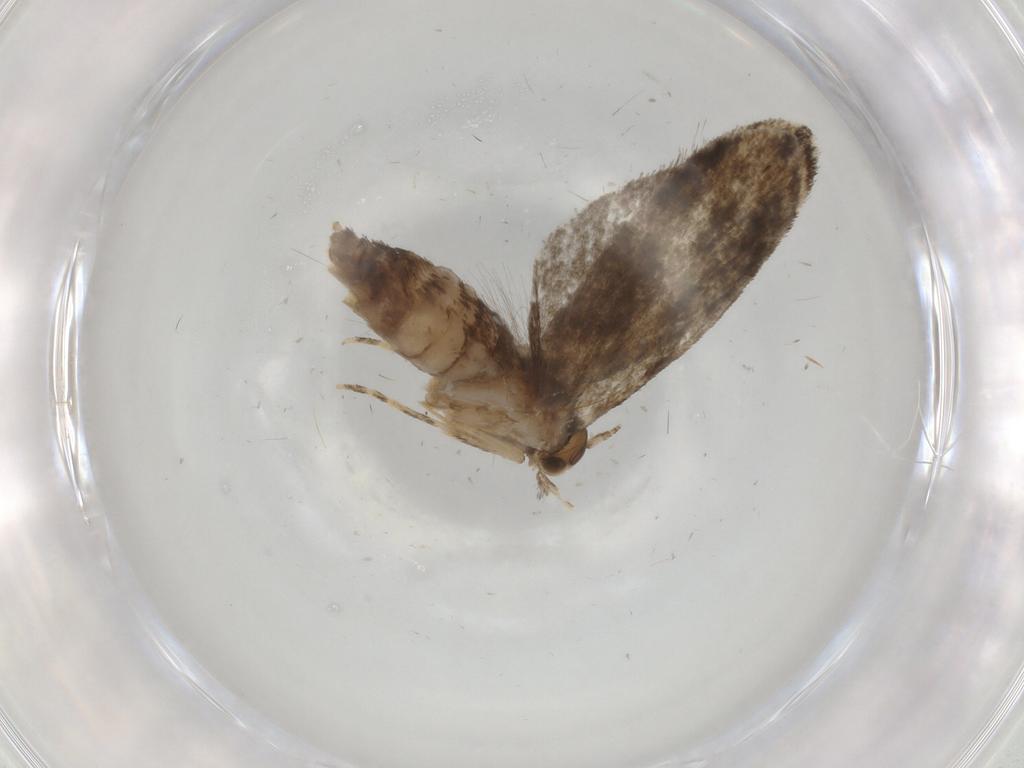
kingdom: Animalia
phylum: Arthropoda
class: Insecta
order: Lepidoptera
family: Tineidae
